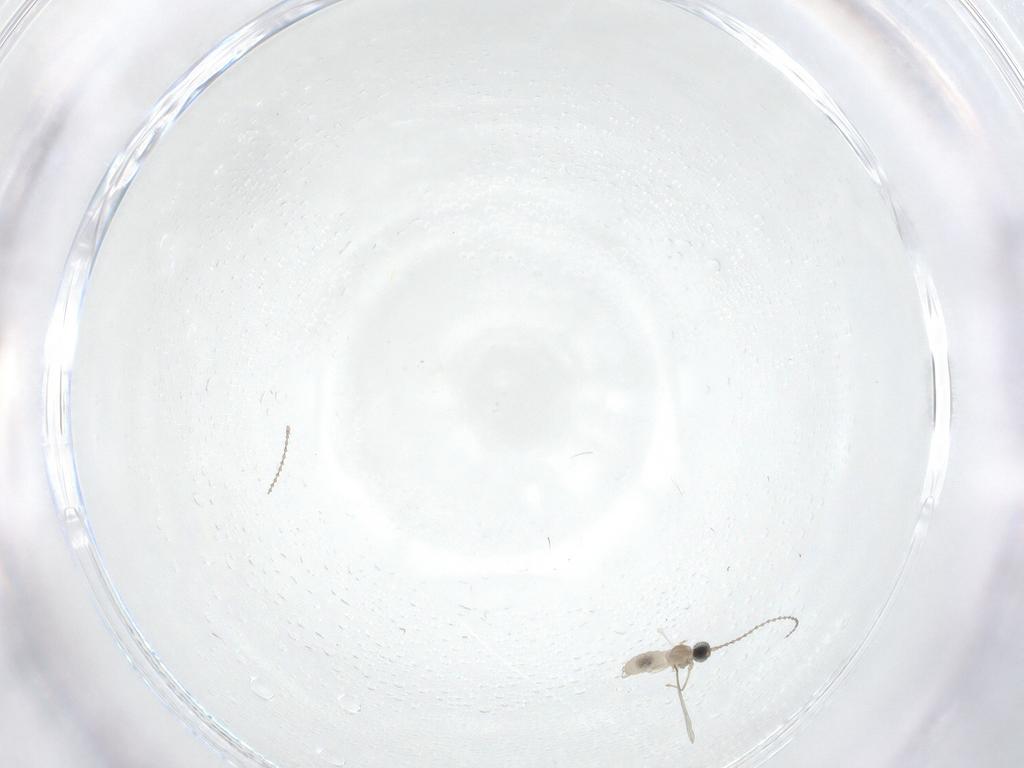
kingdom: Animalia
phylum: Arthropoda
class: Insecta
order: Diptera
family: Cecidomyiidae
